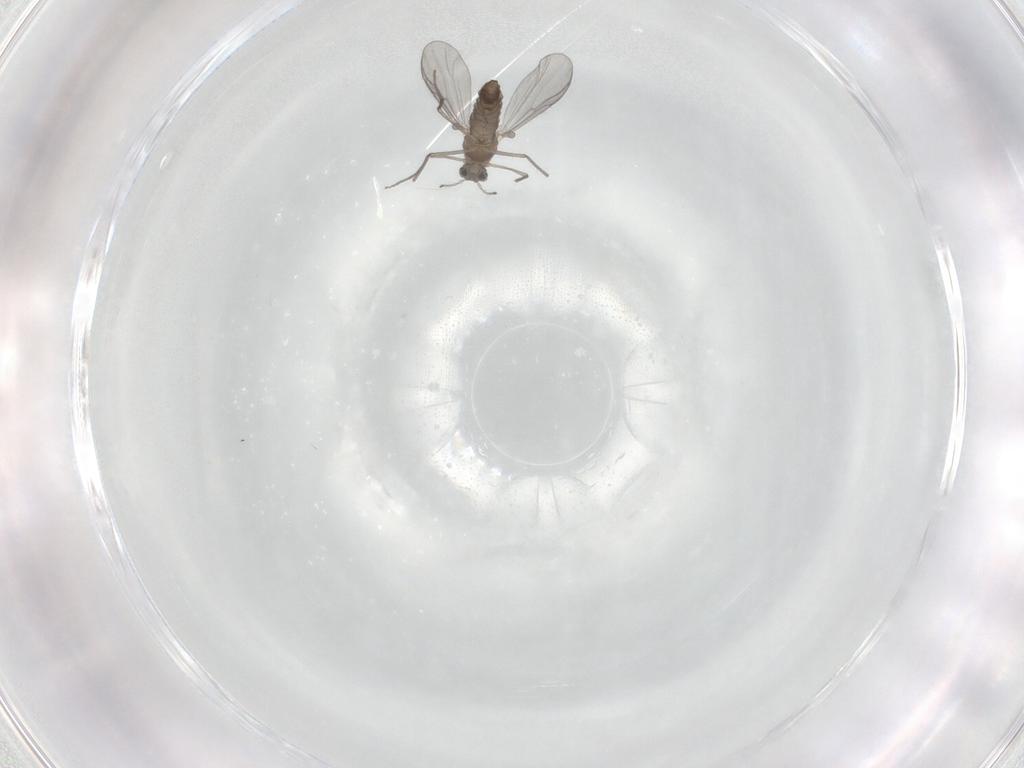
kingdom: Animalia
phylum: Arthropoda
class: Insecta
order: Diptera
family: Chironomidae
